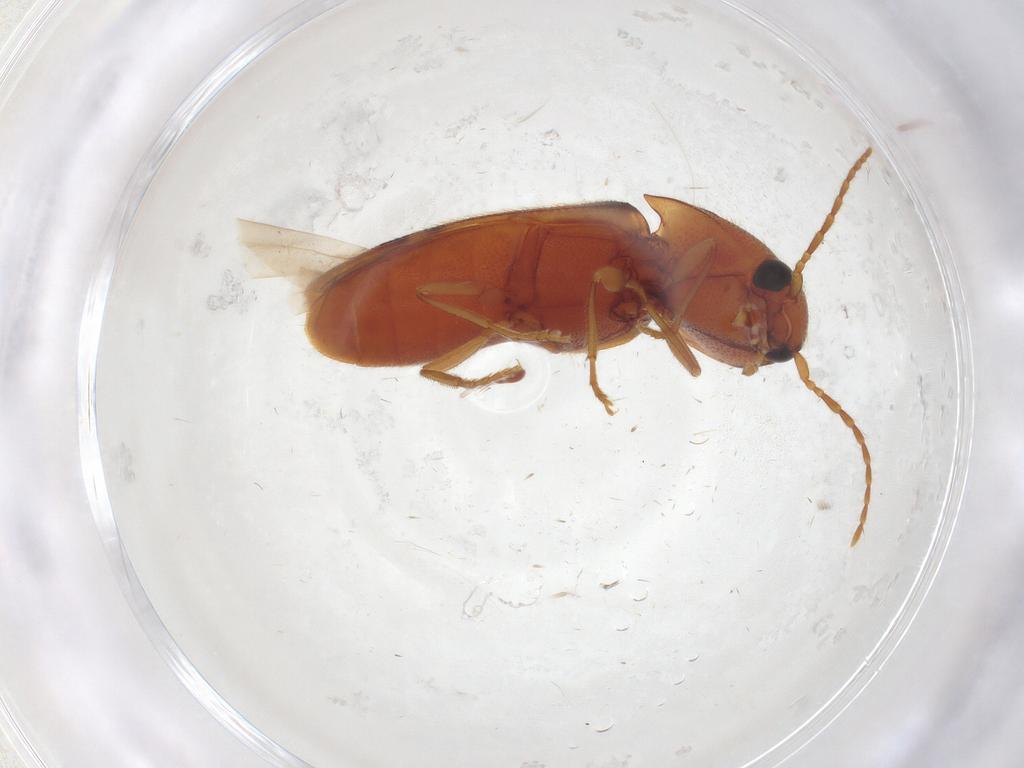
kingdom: Animalia
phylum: Arthropoda
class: Insecta
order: Coleoptera
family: Elateridae
